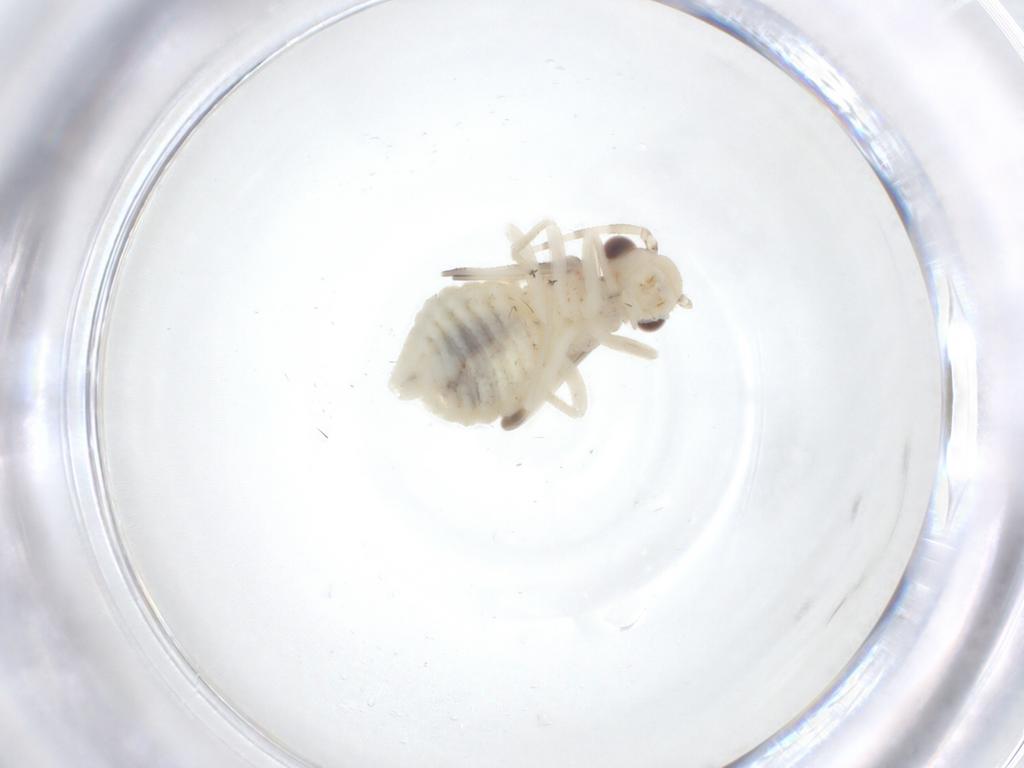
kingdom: Animalia
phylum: Arthropoda
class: Insecta
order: Psocodea
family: Amphipsocidae
